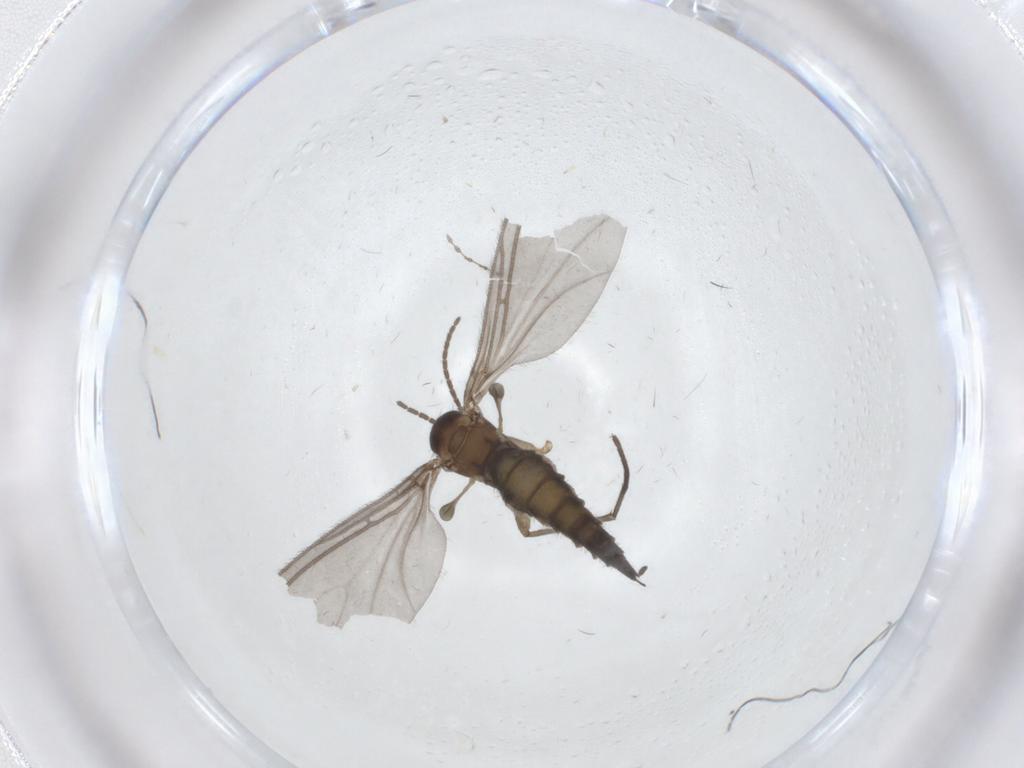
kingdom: Animalia
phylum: Arthropoda
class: Insecta
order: Diptera
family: Sciaridae
